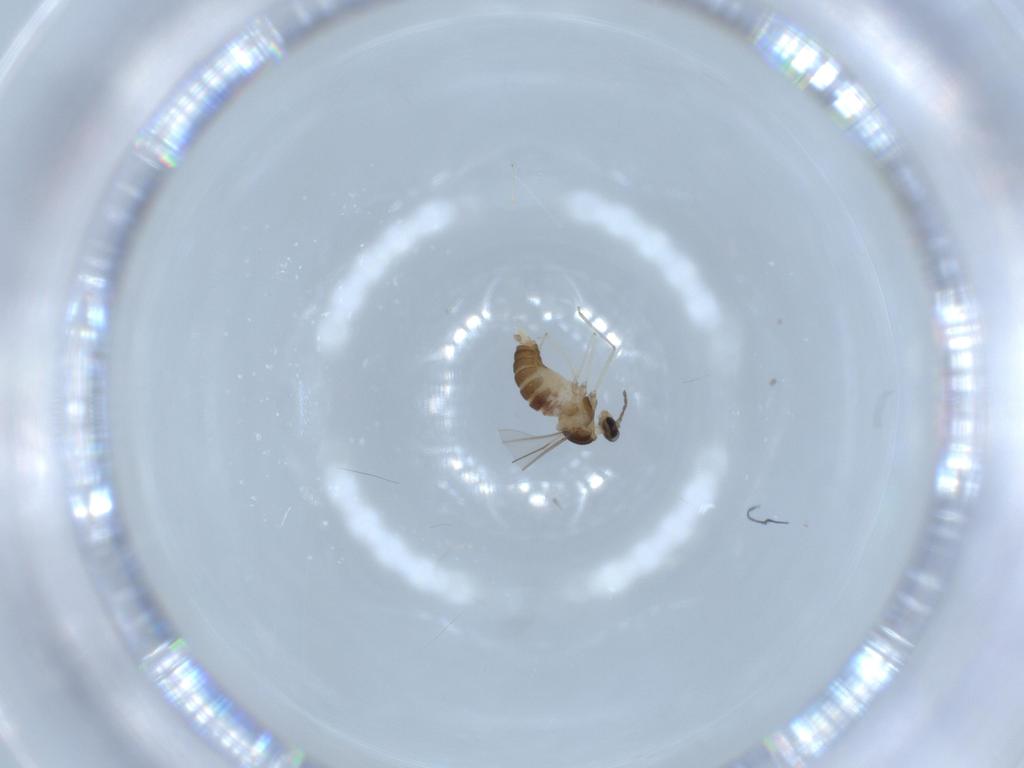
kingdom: Animalia
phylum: Arthropoda
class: Insecta
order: Diptera
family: Cecidomyiidae
